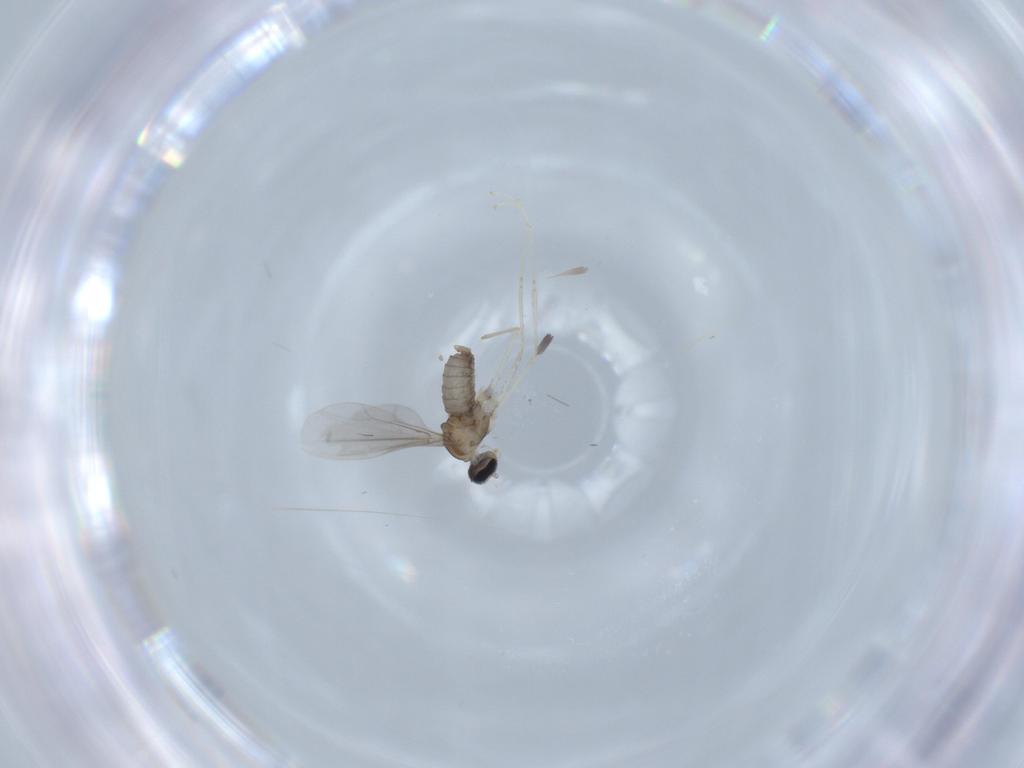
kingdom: Animalia
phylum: Arthropoda
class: Insecta
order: Diptera
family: Cecidomyiidae
